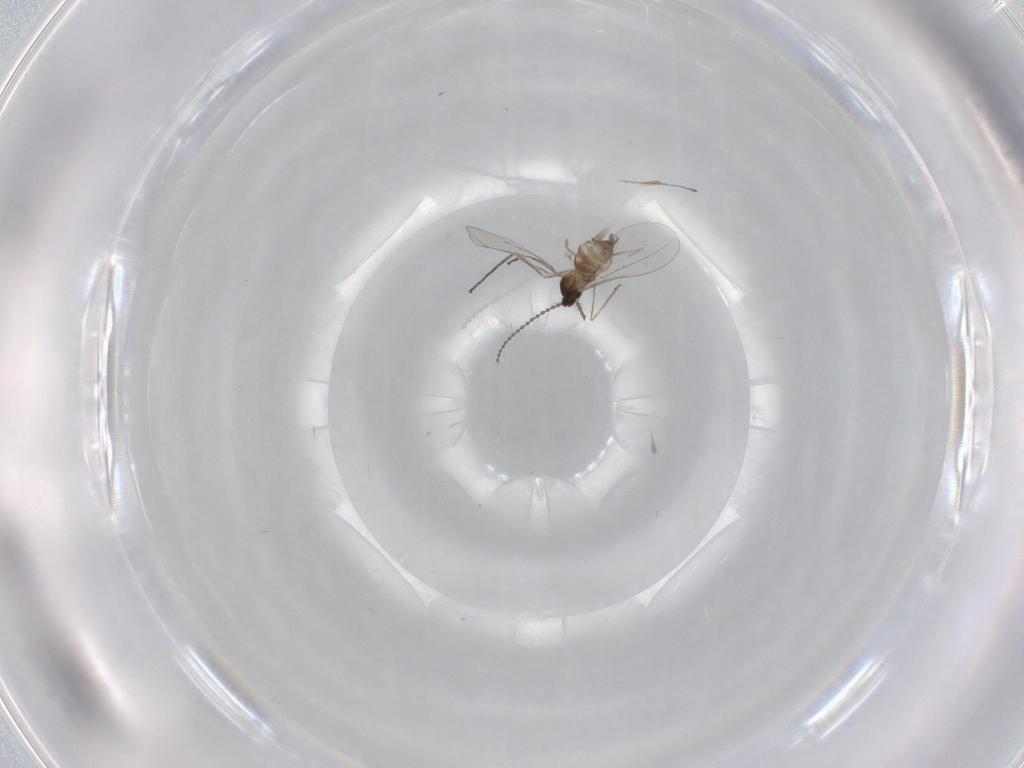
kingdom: Animalia
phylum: Arthropoda
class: Insecta
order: Diptera
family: Cecidomyiidae
